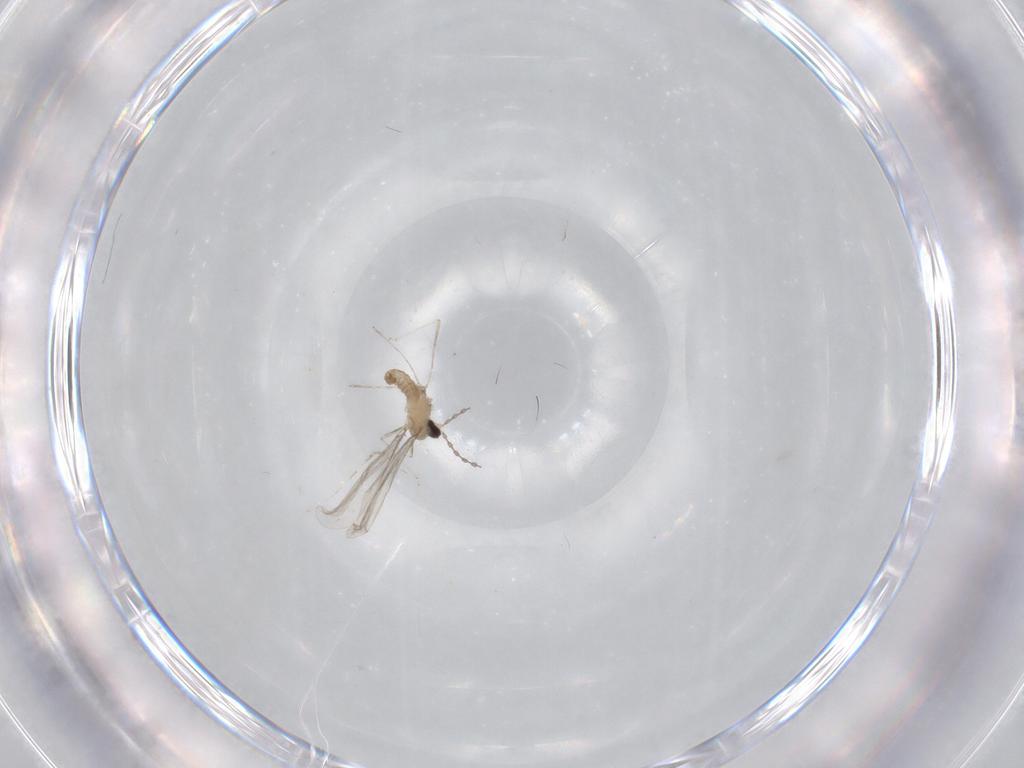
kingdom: Animalia
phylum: Arthropoda
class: Insecta
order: Diptera
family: Cecidomyiidae
